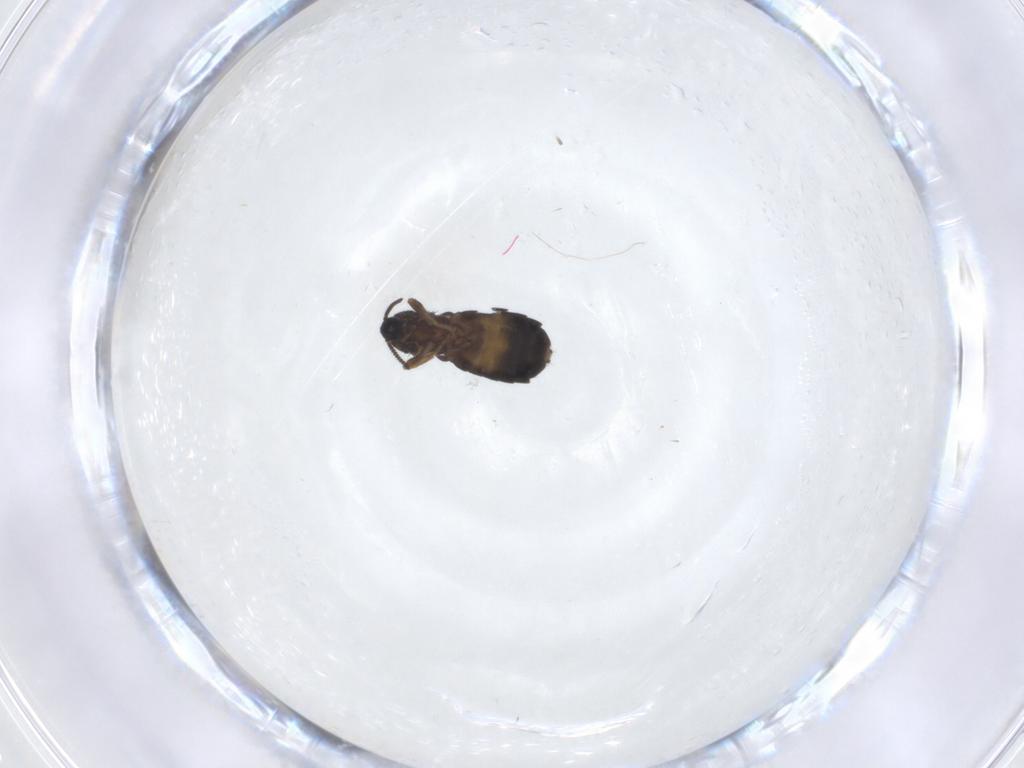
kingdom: Animalia
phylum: Arthropoda
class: Insecta
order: Diptera
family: Scatopsidae
